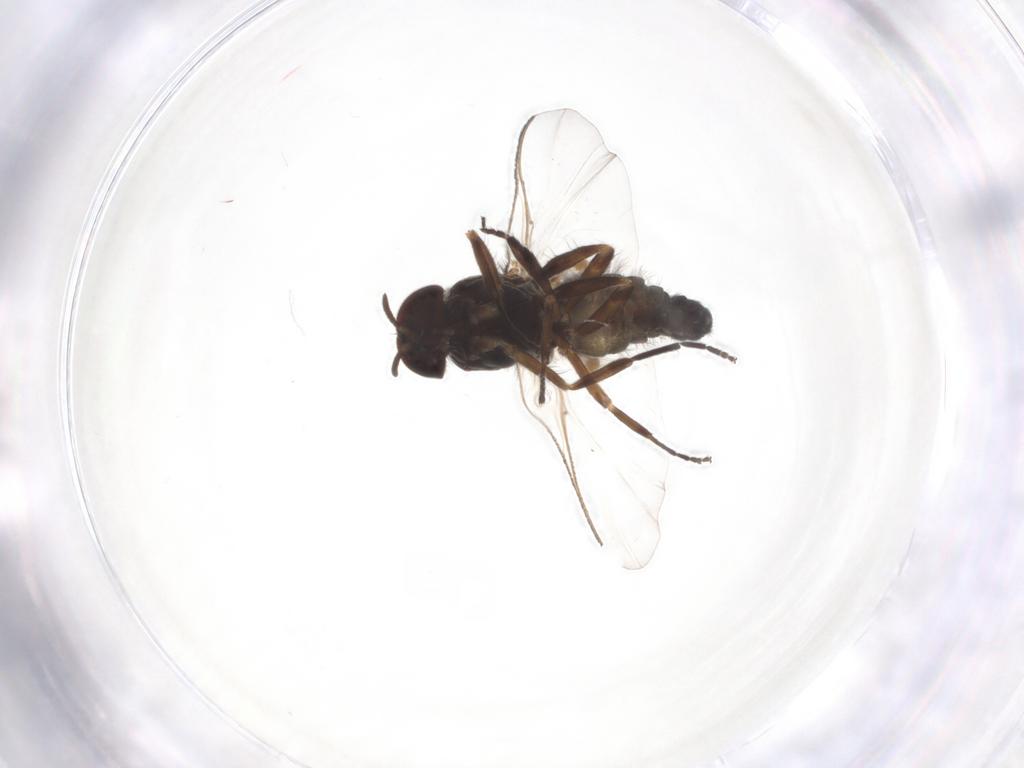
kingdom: Animalia
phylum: Arthropoda
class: Insecta
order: Diptera
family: Simuliidae
